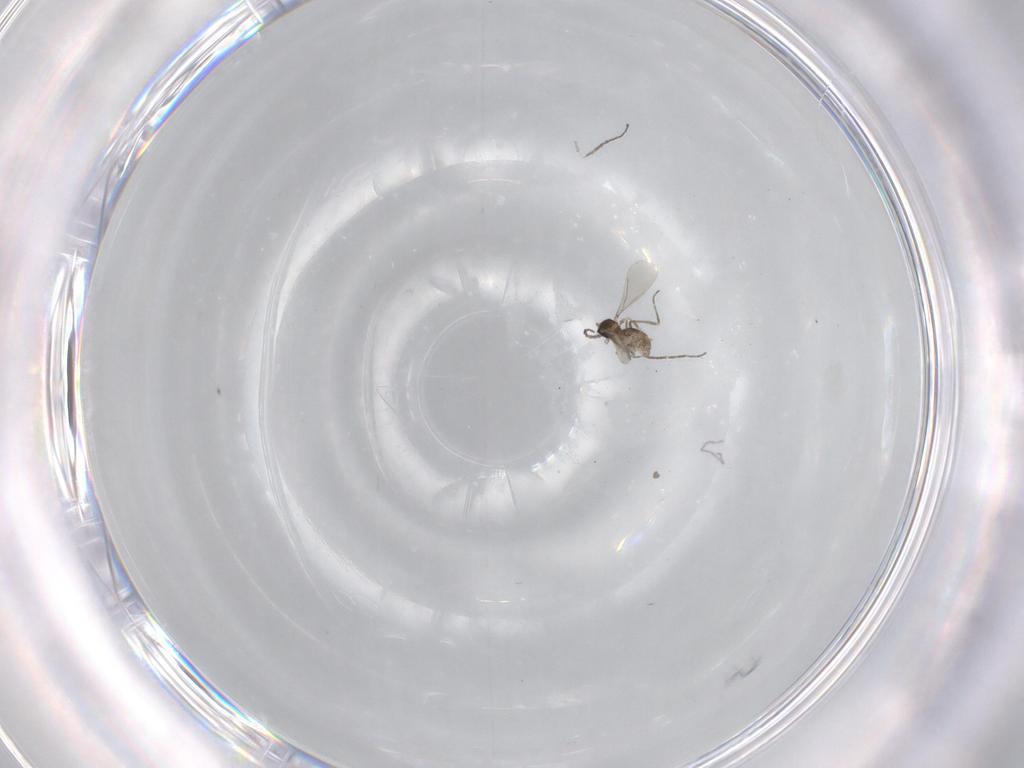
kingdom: Animalia
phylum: Arthropoda
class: Insecta
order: Diptera
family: Cecidomyiidae
